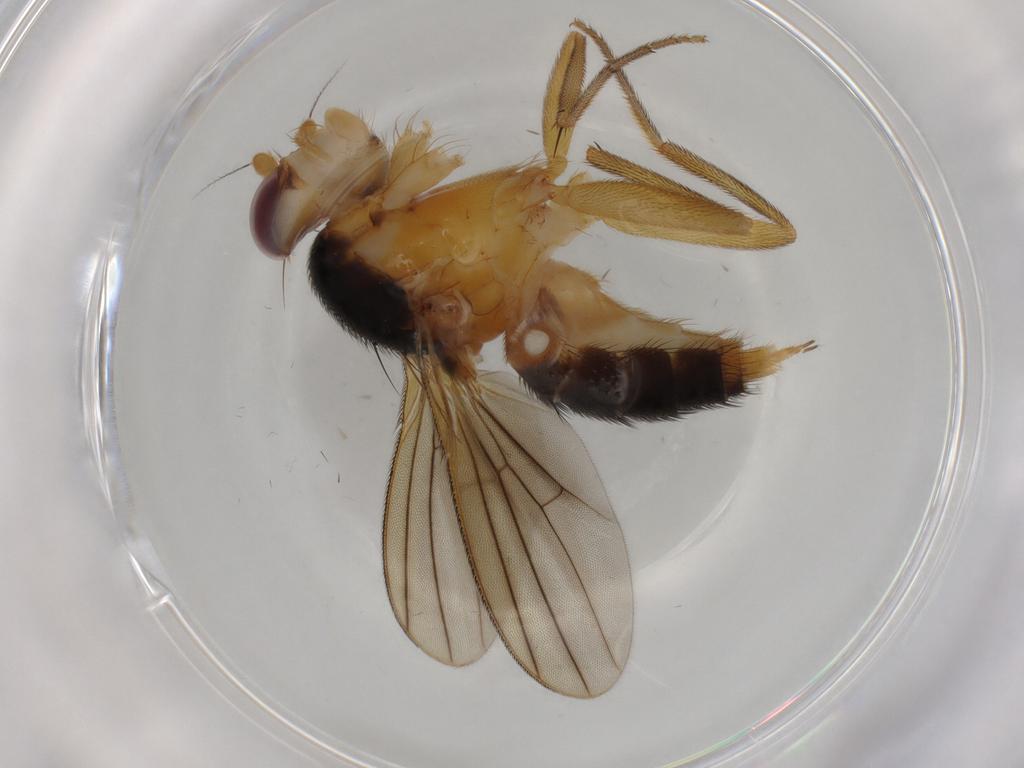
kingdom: Animalia
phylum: Arthropoda
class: Insecta
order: Diptera
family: Clusiidae
